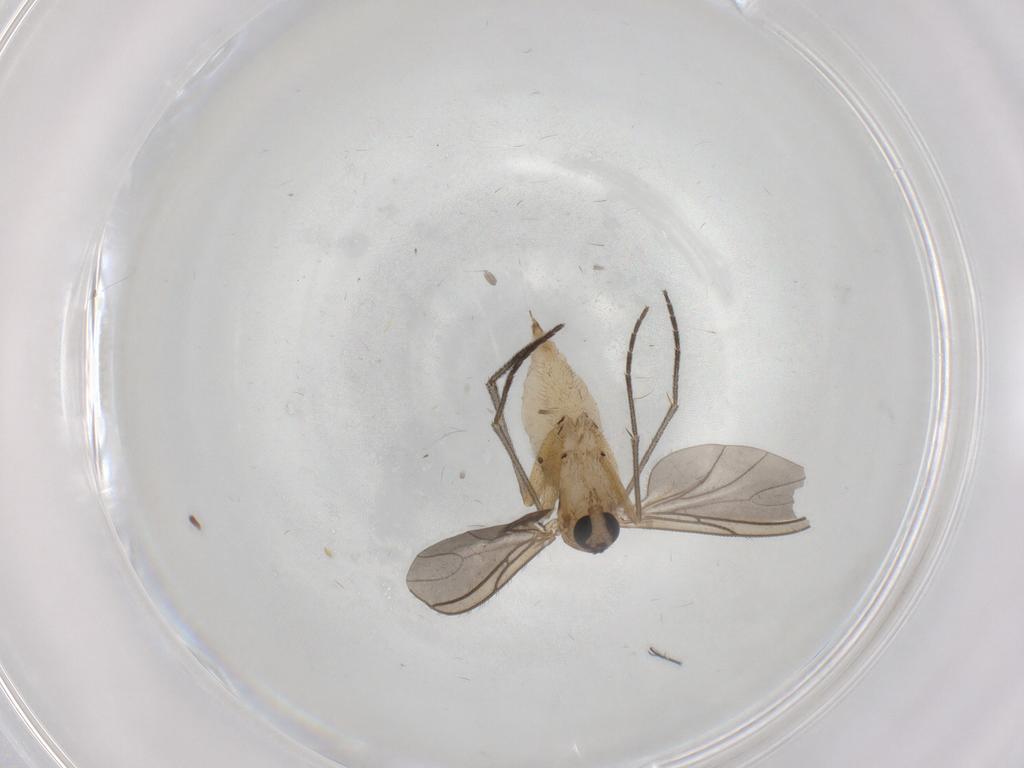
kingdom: Animalia
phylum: Arthropoda
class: Insecta
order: Diptera
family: Sciaridae
